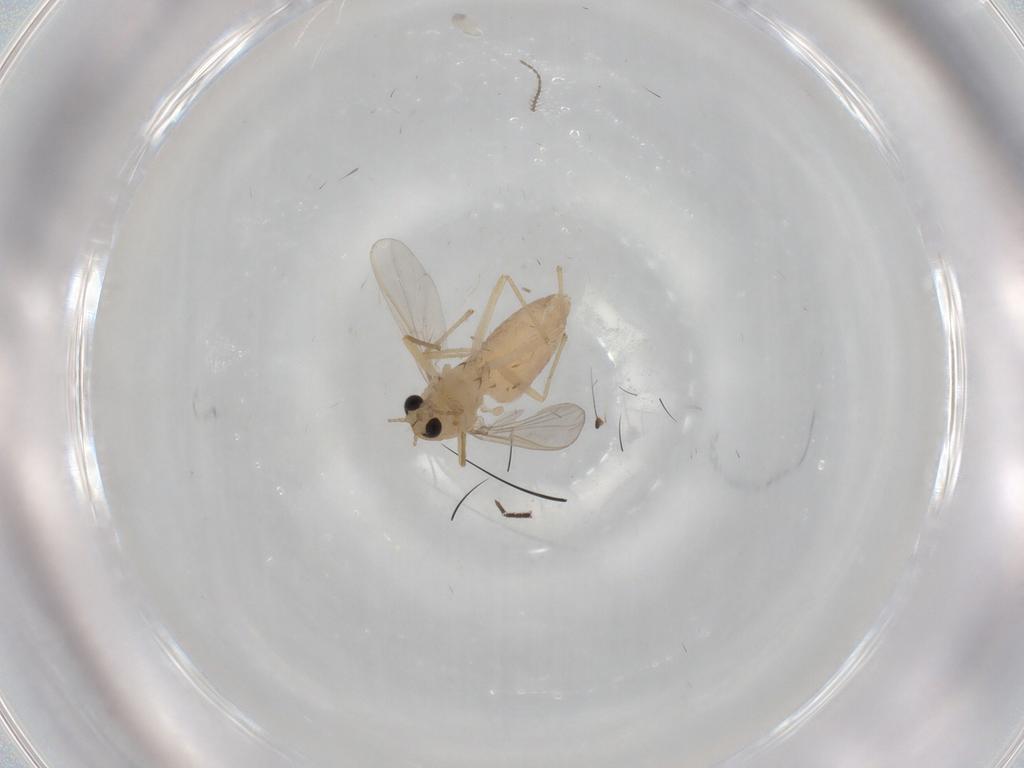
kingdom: Animalia
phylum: Arthropoda
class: Insecta
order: Diptera
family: Chironomidae
